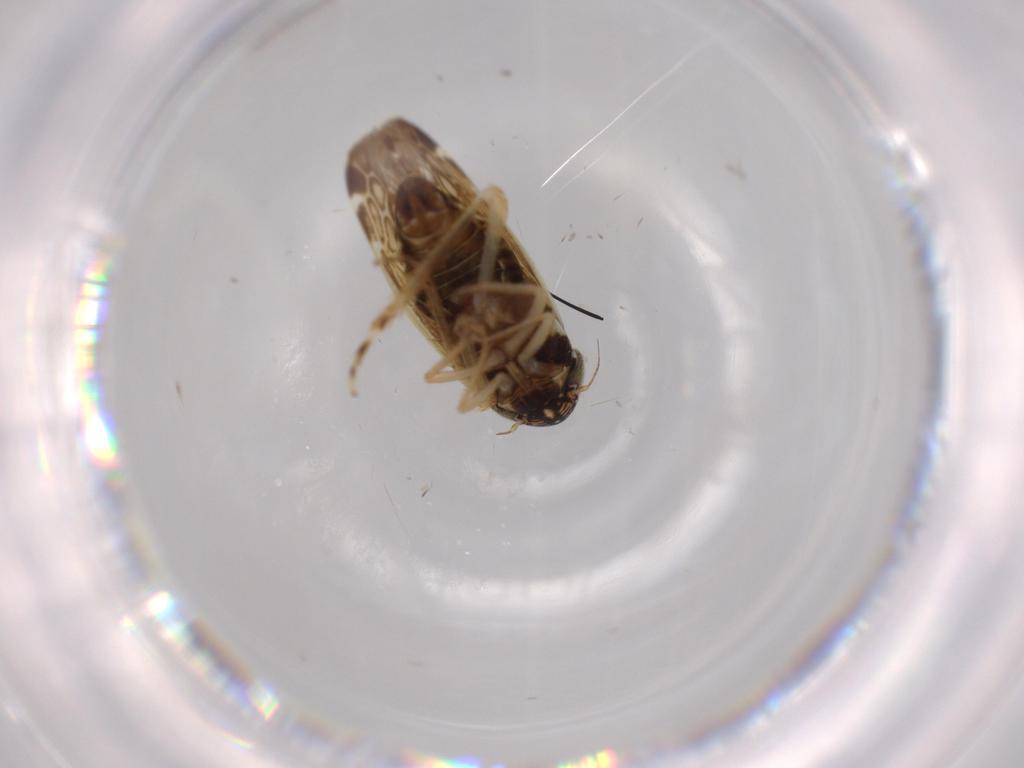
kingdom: Animalia
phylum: Arthropoda
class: Insecta
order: Hemiptera
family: Cicadellidae
